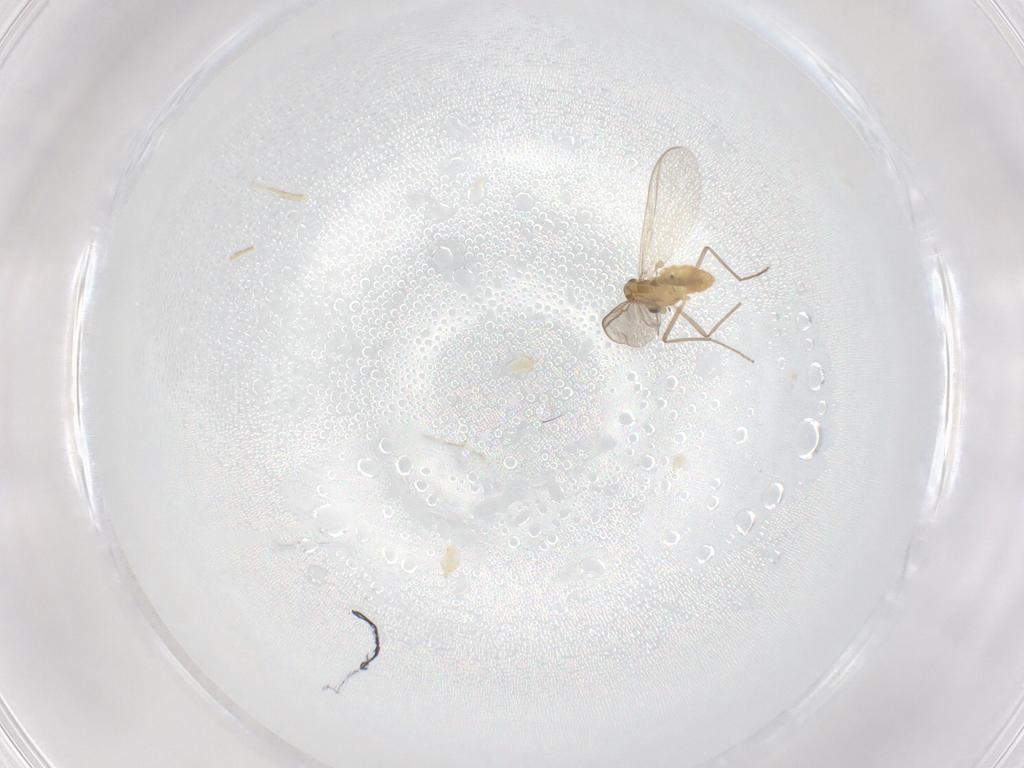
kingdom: Animalia
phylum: Arthropoda
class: Insecta
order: Diptera
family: Chironomidae
